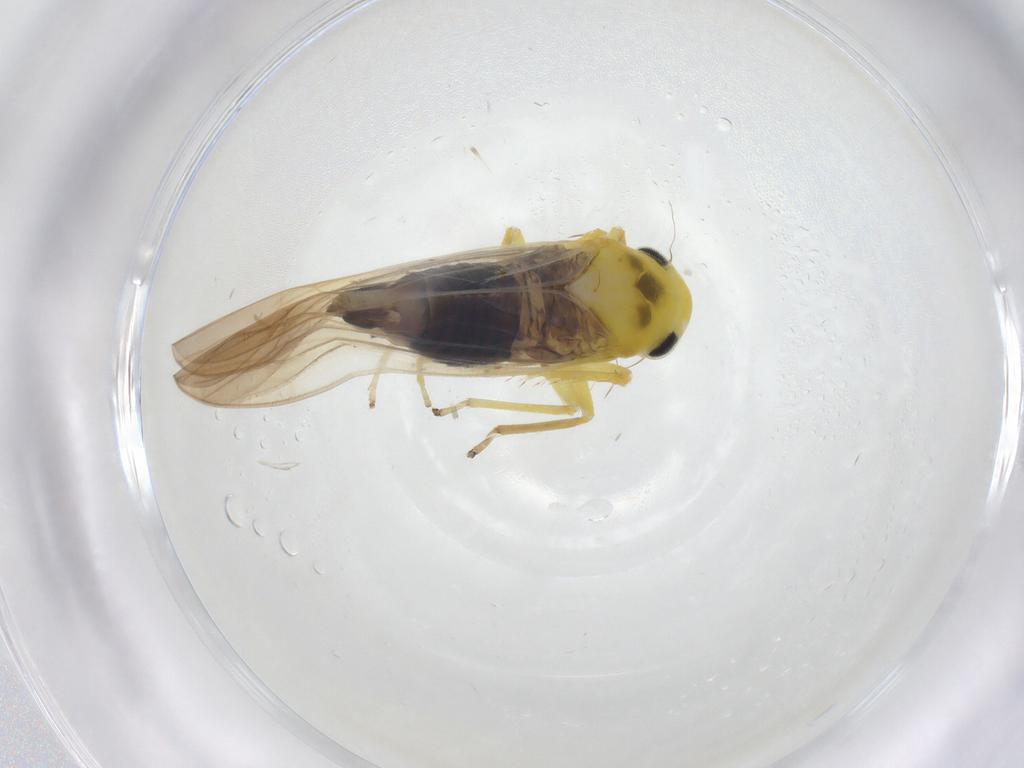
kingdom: Animalia
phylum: Arthropoda
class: Insecta
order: Hemiptera
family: Cicadellidae
